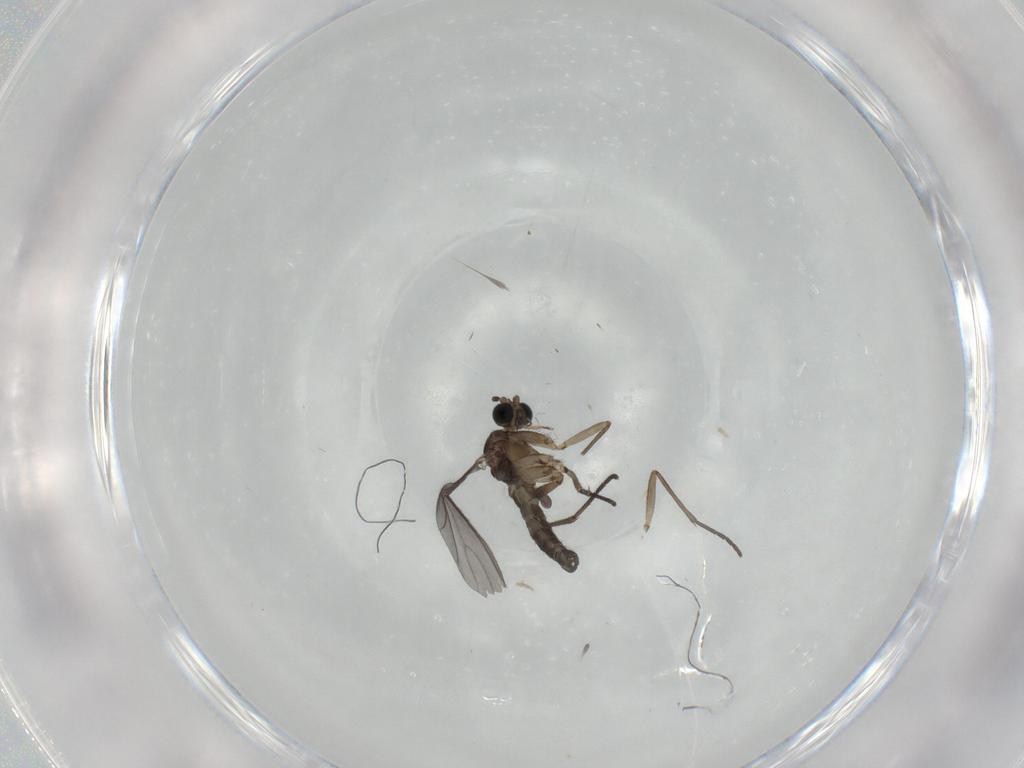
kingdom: Animalia
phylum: Arthropoda
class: Insecta
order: Diptera
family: Sciaridae
